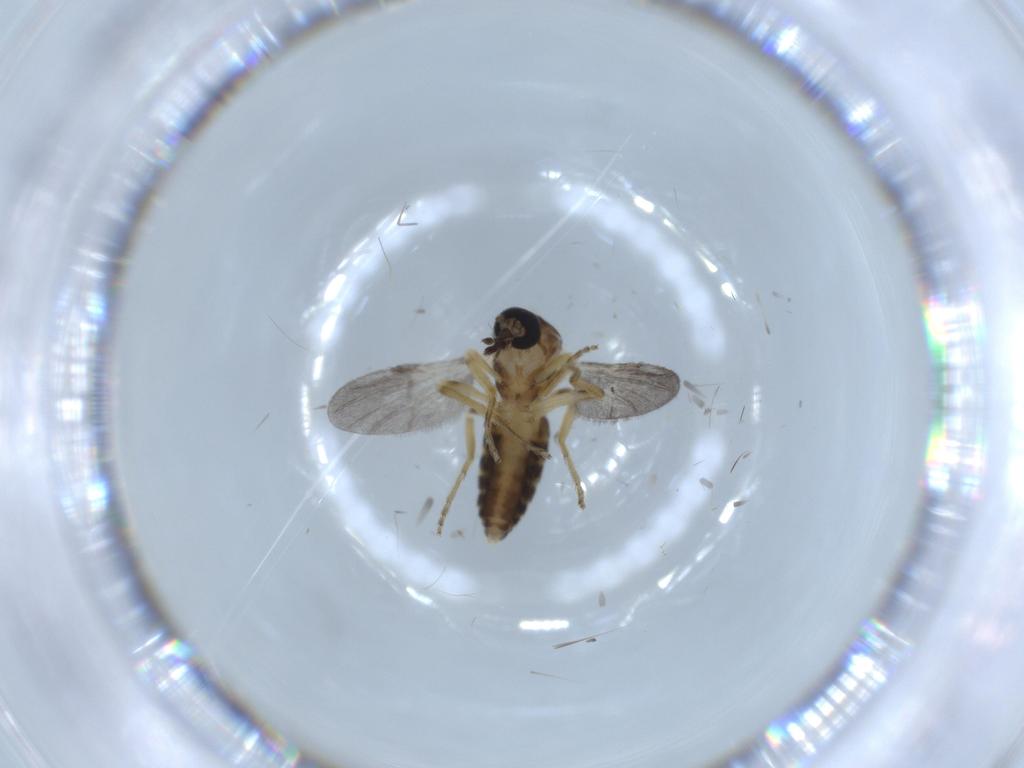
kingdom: Animalia
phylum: Arthropoda
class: Insecta
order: Diptera
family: Ceratopogonidae
